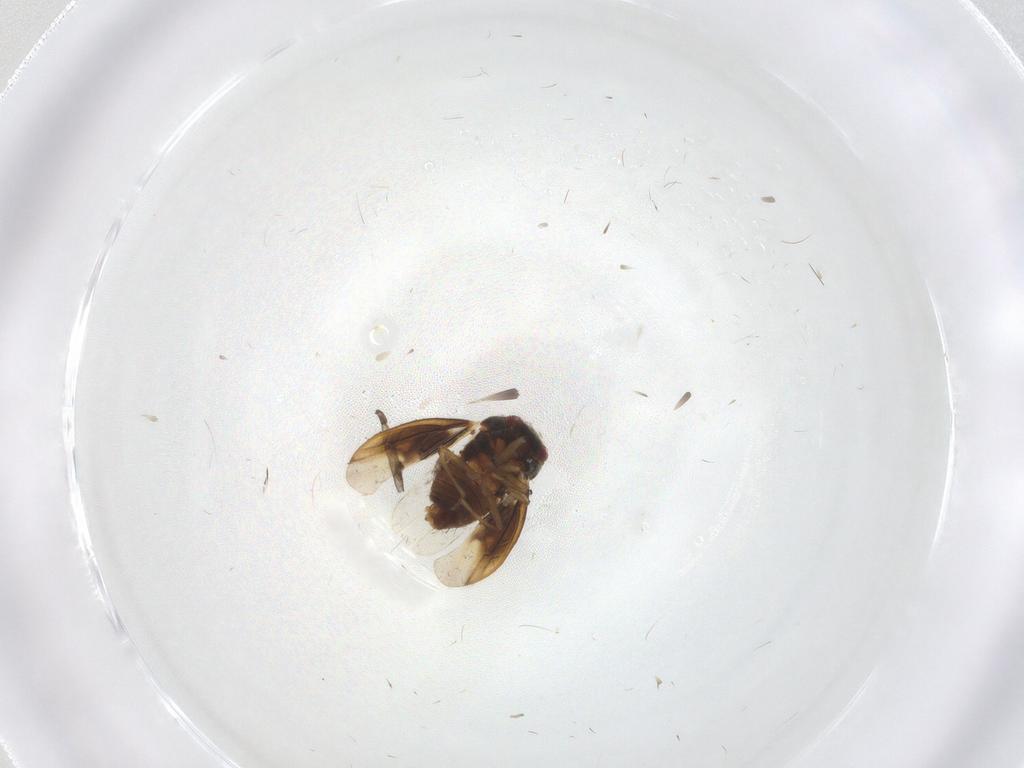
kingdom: Animalia
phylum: Arthropoda
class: Insecta
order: Hemiptera
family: Schizopteridae
